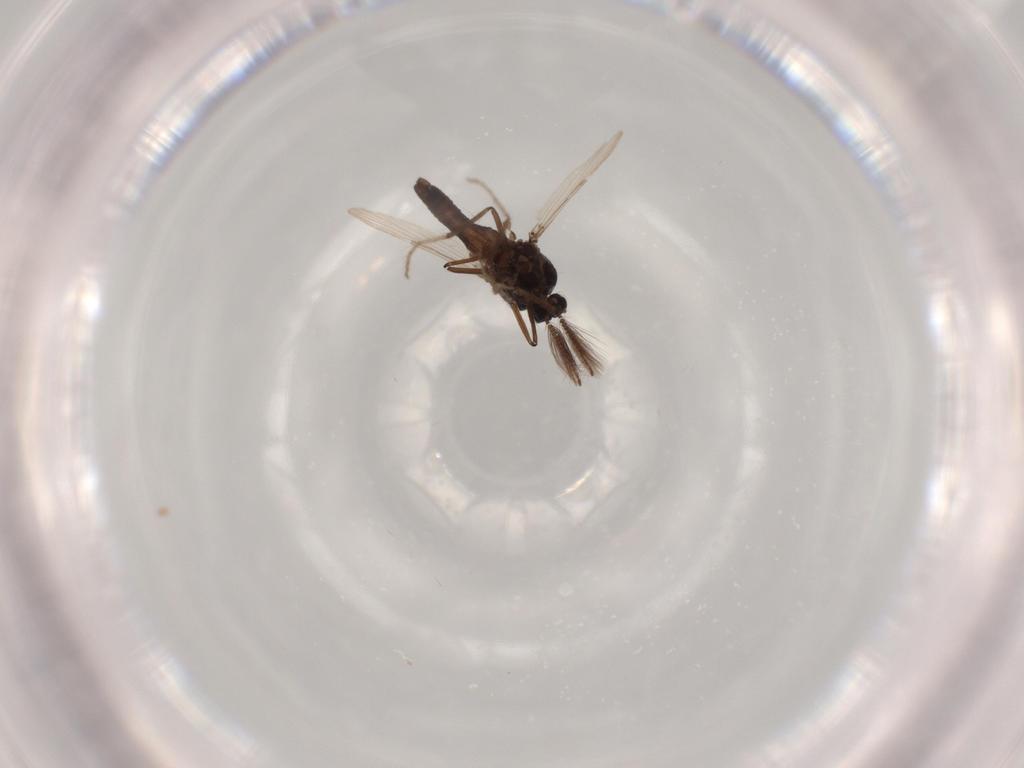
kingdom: Animalia
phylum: Arthropoda
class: Insecta
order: Diptera
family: Chironomidae
